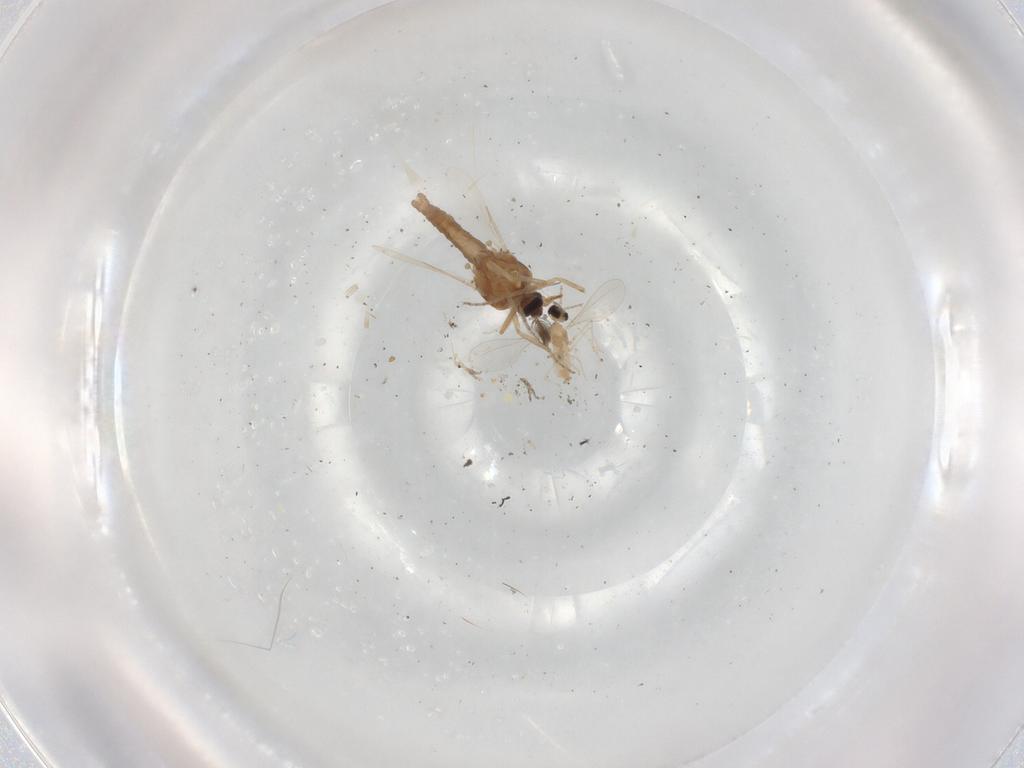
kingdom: Animalia
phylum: Arthropoda
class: Insecta
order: Diptera
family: Ceratopogonidae
